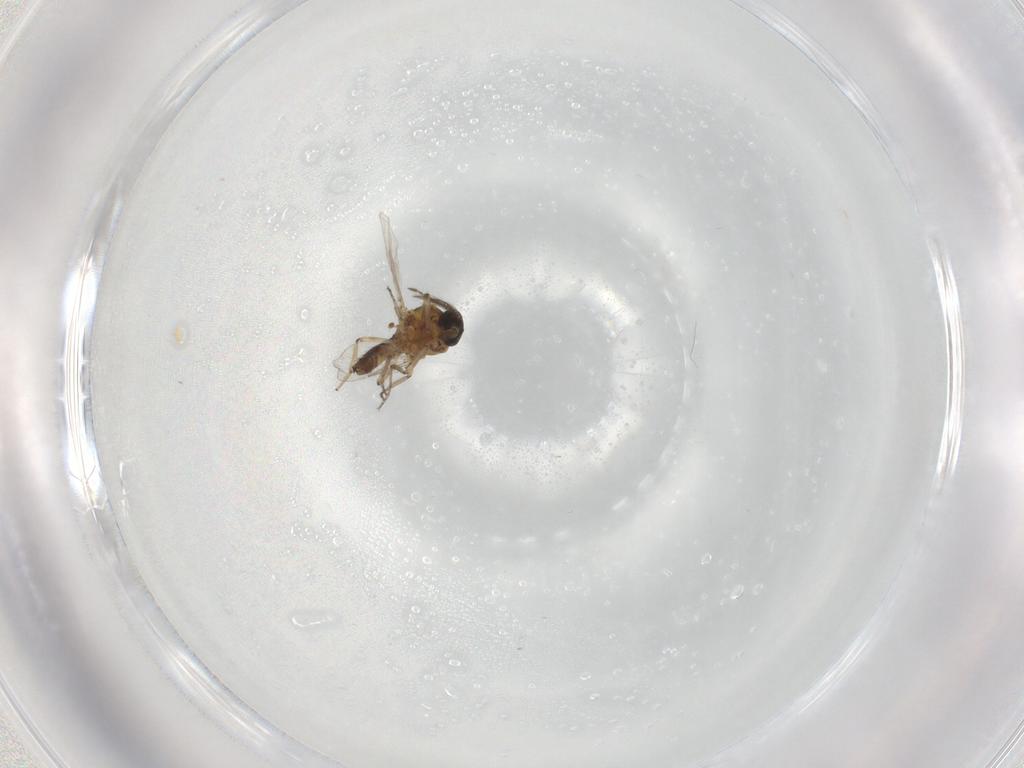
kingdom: Animalia
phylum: Arthropoda
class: Insecta
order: Diptera
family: Ceratopogonidae
